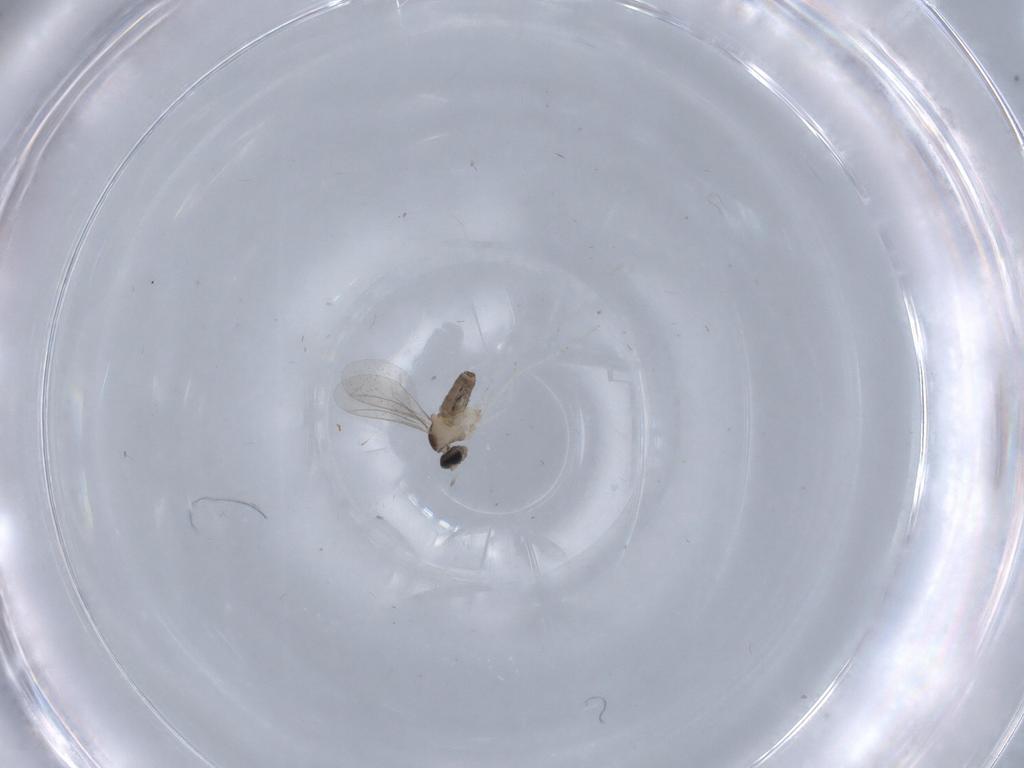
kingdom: Animalia
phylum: Arthropoda
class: Insecta
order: Diptera
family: Cecidomyiidae
